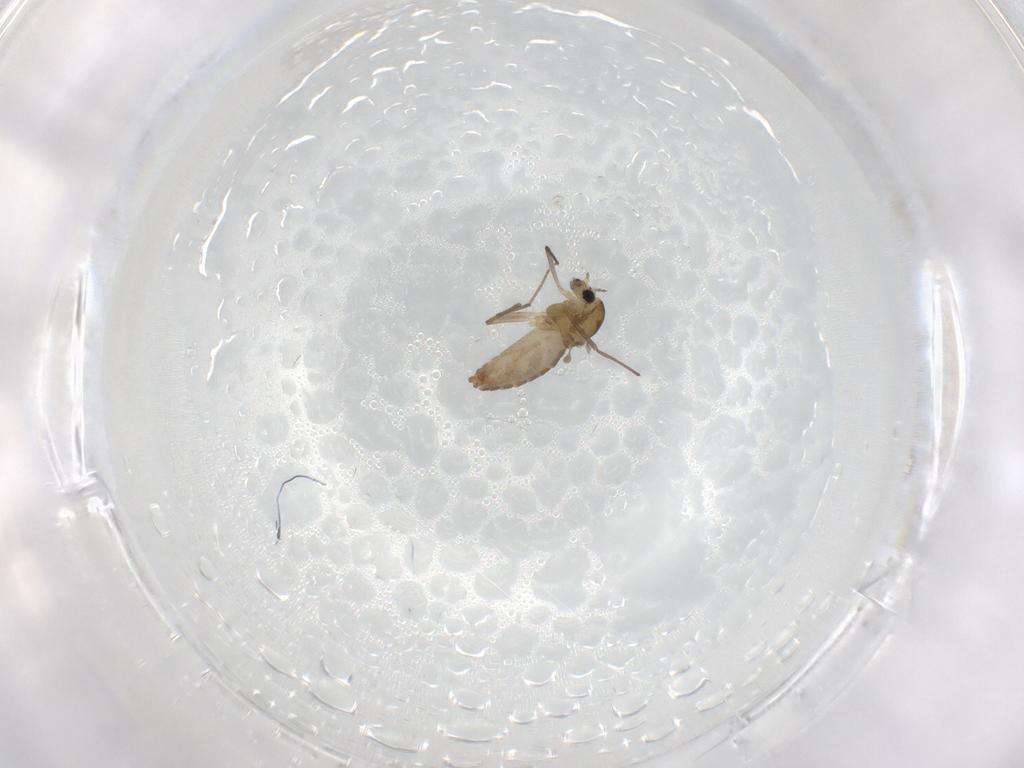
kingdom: Animalia
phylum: Arthropoda
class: Insecta
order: Diptera
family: Chironomidae
